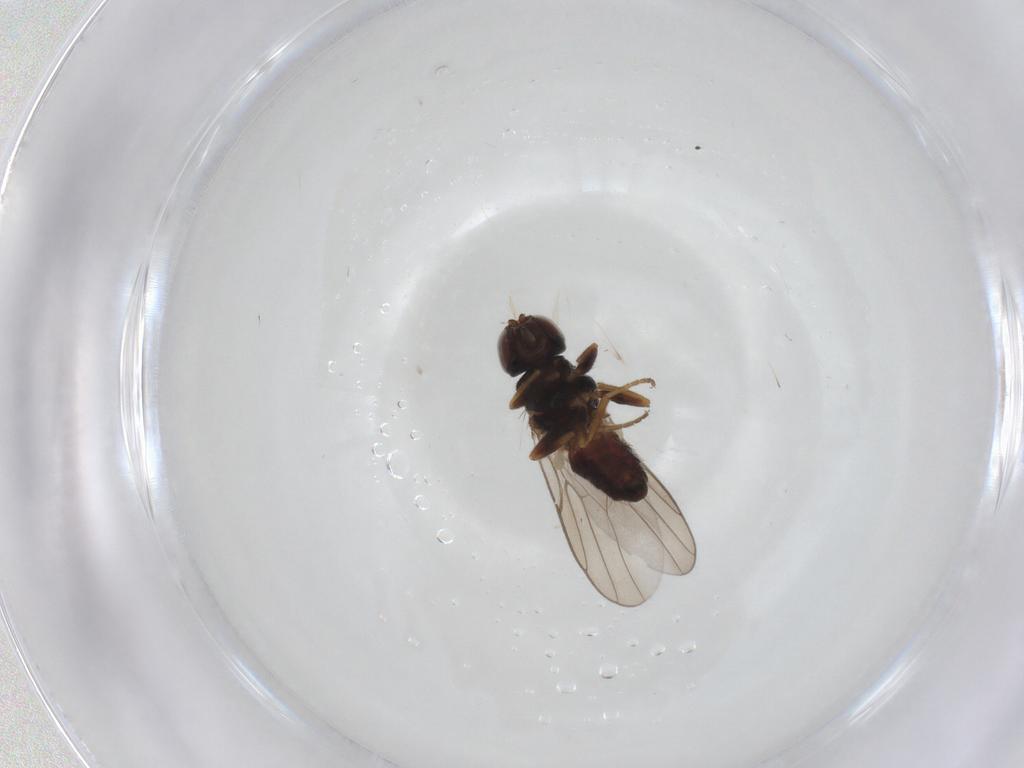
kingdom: Animalia
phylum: Arthropoda
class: Insecta
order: Diptera
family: Chloropidae
